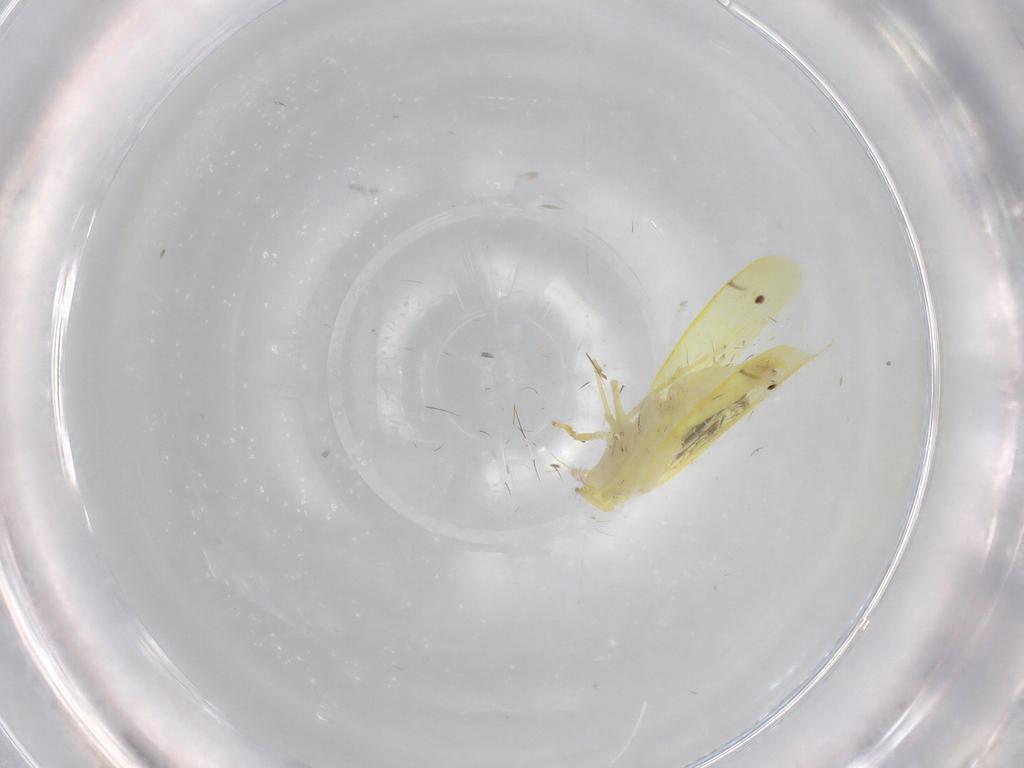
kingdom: Animalia
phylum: Arthropoda
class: Insecta
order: Hemiptera
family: Cicadellidae
